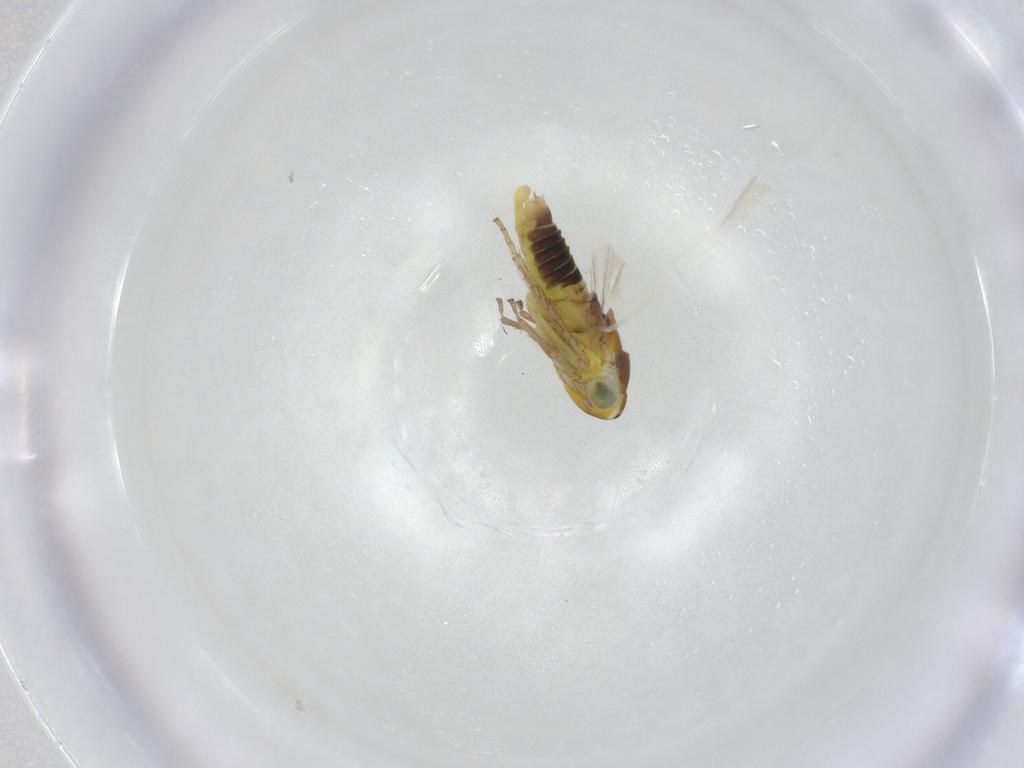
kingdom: Animalia
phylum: Arthropoda
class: Insecta
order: Hemiptera
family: Cicadellidae
